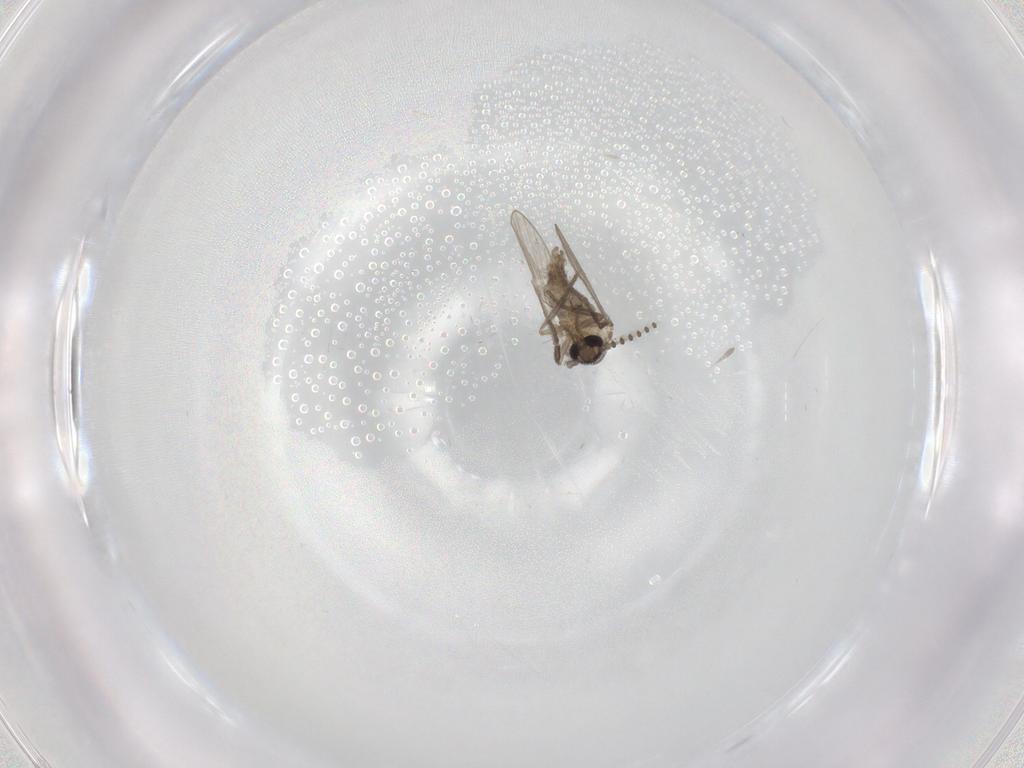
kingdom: Animalia
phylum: Arthropoda
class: Insecta
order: Diptera
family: Psychodidae
